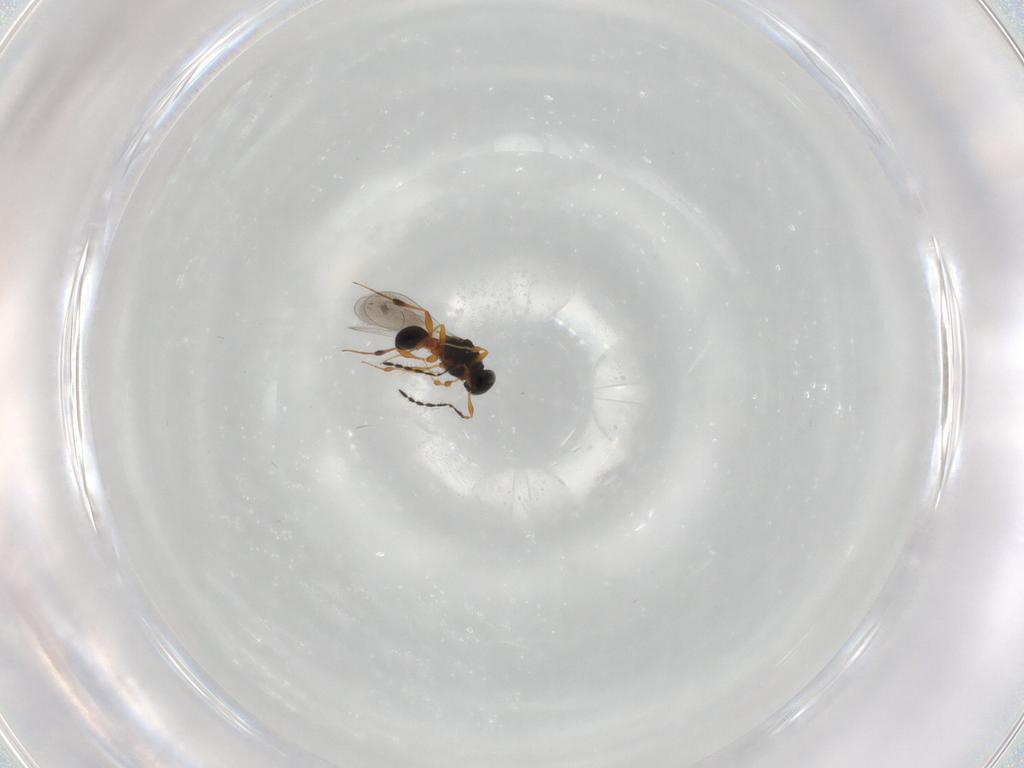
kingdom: Animalia
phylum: Arthropoda
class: Insecta
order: Hymenoptera
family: Platygastridae
